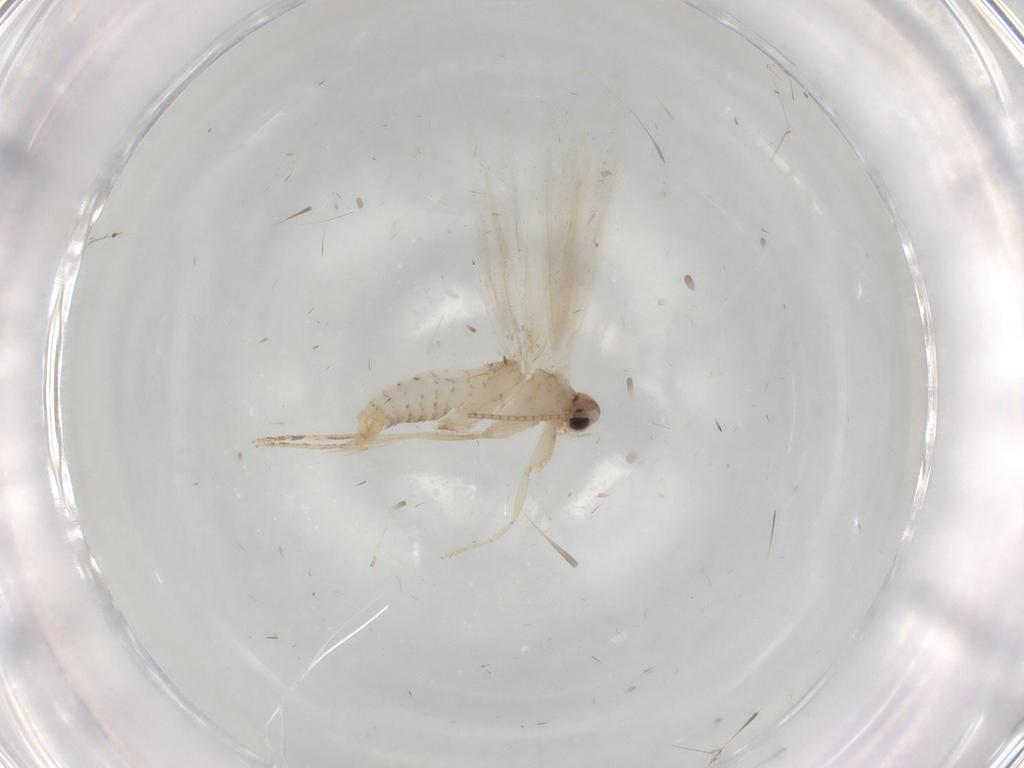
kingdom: Animalia
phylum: Arthropoda
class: Insecta
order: Lepidoptera
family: Tineidae
